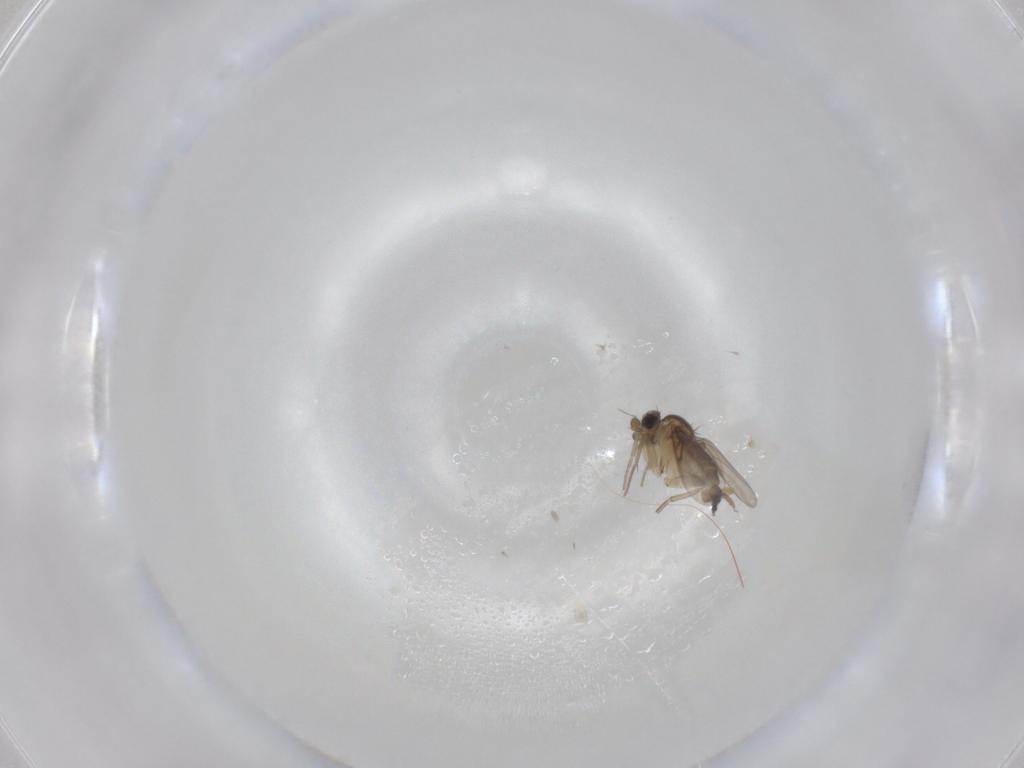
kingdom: Animalia
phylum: Arthropoda
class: Insecta
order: Diptera
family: Phoridae
